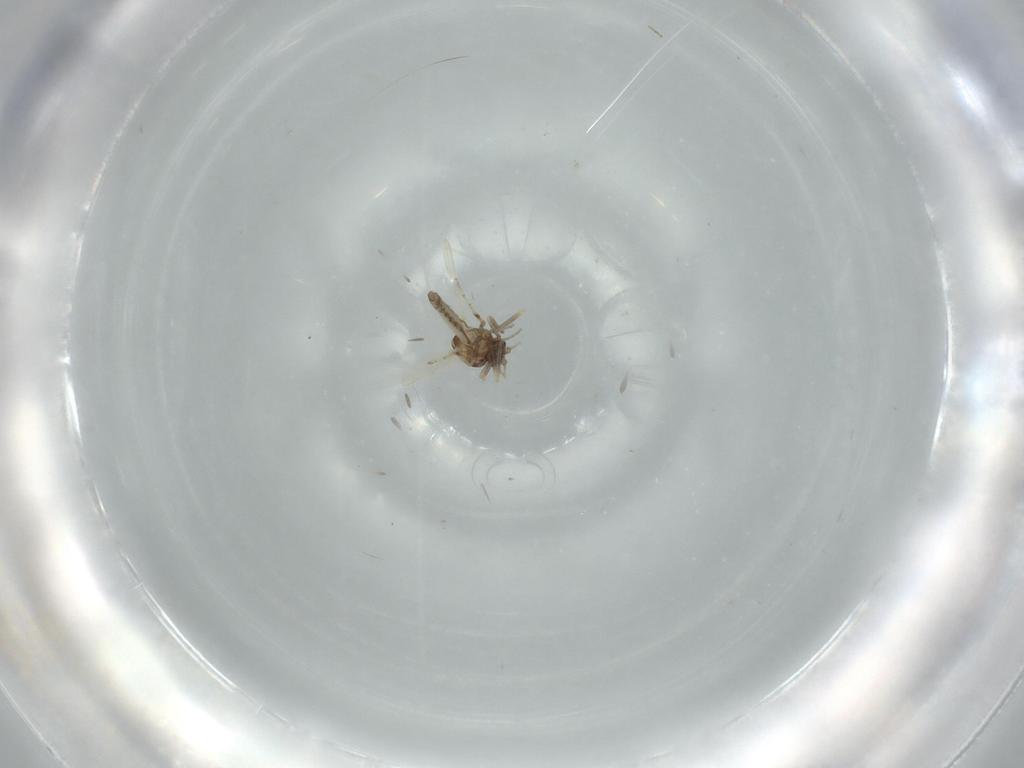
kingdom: Animalia
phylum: Arthropoda
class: Insecta
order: Diptera
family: Ceratopogonidae
